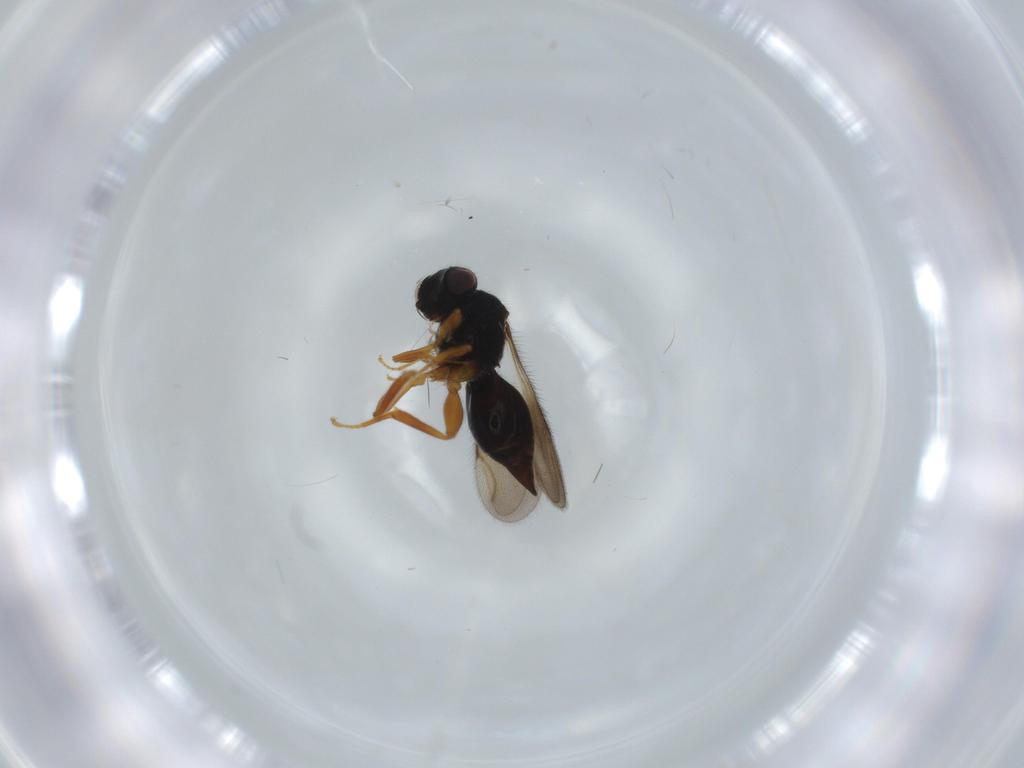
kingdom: Animalia
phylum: Arthropoda
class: Insecta
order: Hymenoptera
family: Ceraphronidae
